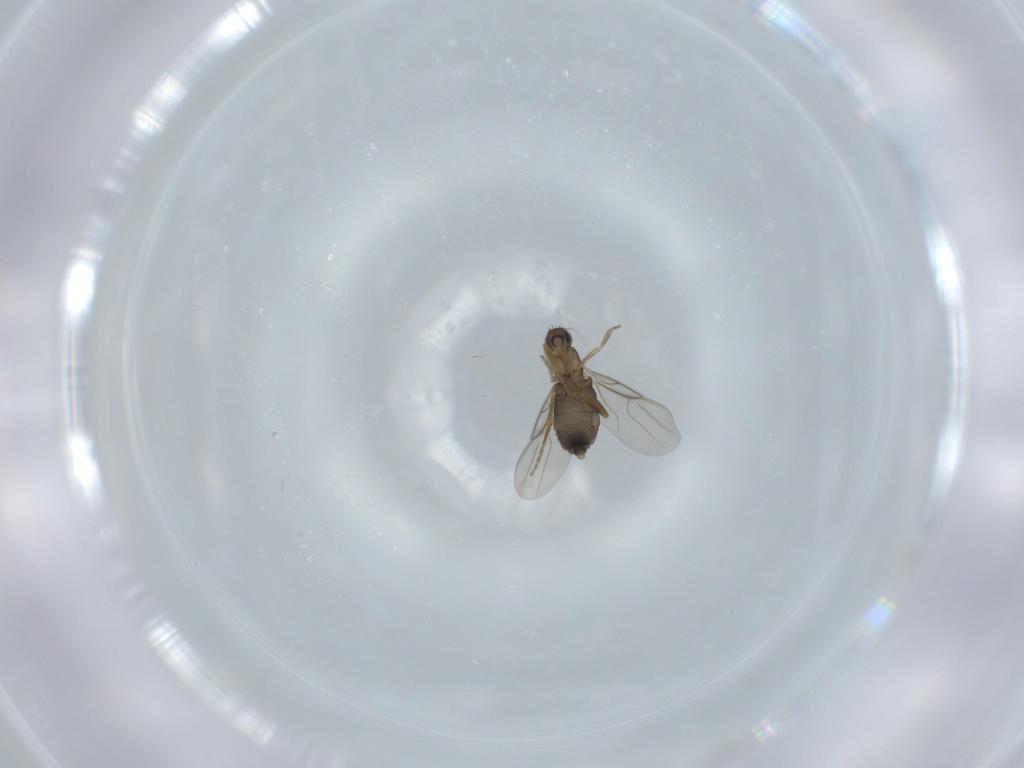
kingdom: Animalia
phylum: Arthropoda
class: Insecta
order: Diptera
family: Phoridae
